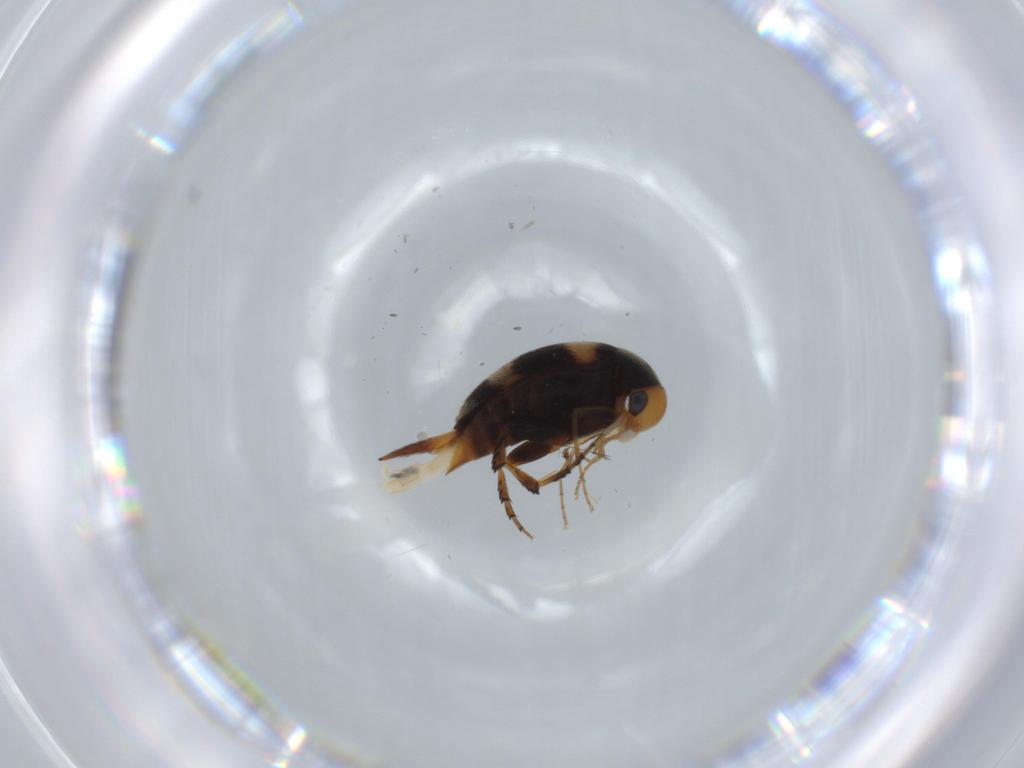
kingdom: Animalia
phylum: Arthropoda
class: Insecta
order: Coleoptera
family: Mordellidae
